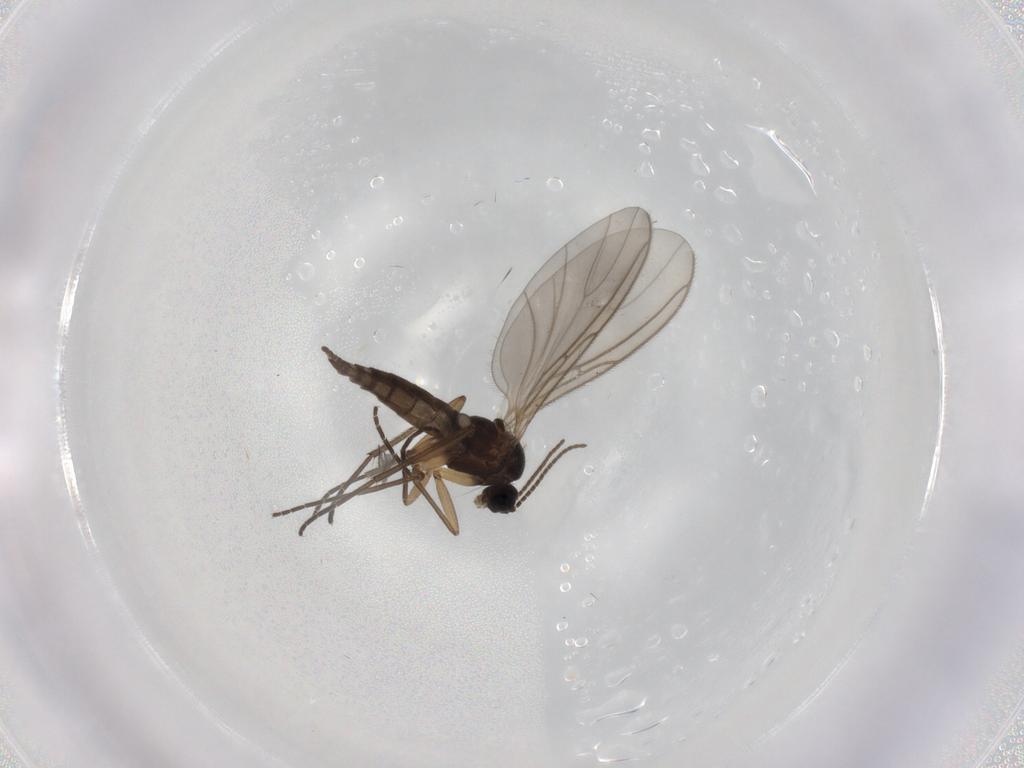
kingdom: Animalia
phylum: Arthropoda
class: Insecta
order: Diptera
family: Sciaridae
